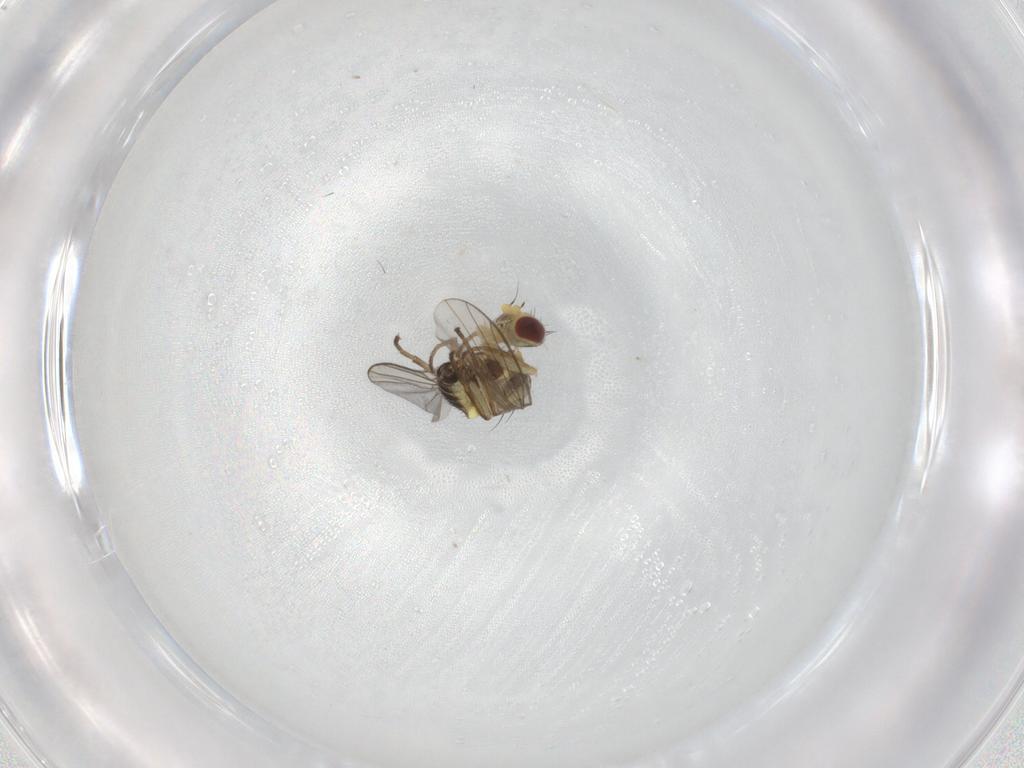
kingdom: Animalia
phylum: Arthropoda
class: Insecta
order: Diptera
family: Agromyzidae
